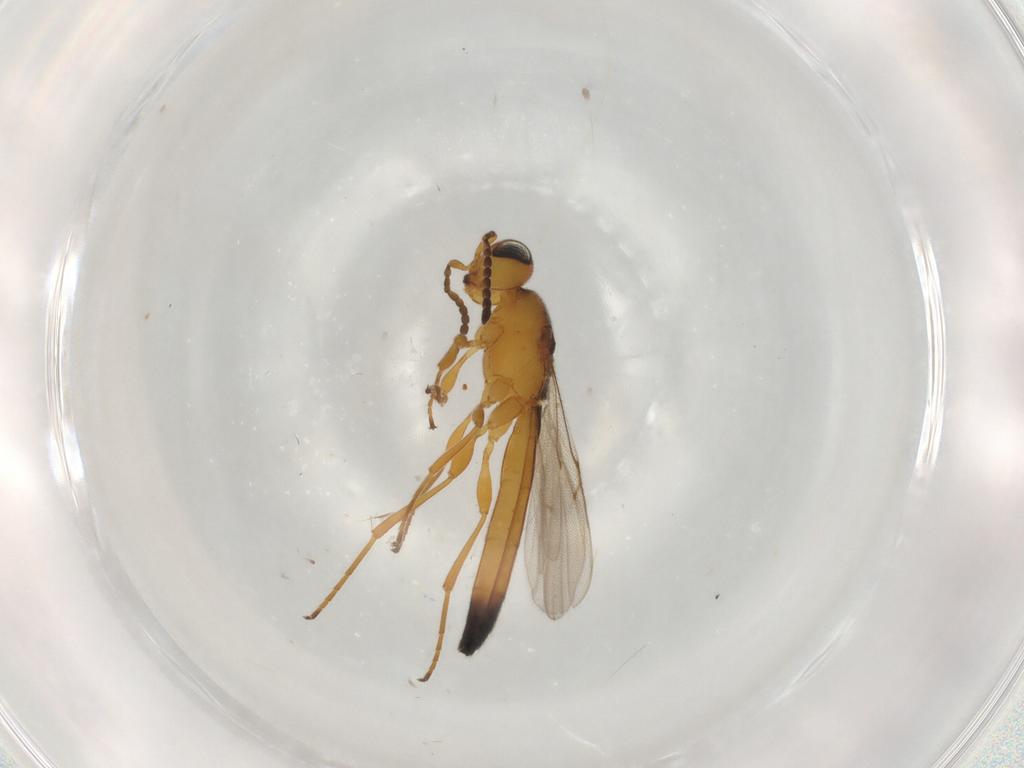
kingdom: Animalia
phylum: Arthropoda
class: Insecta
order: Hymenoptera
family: Scelionidae
